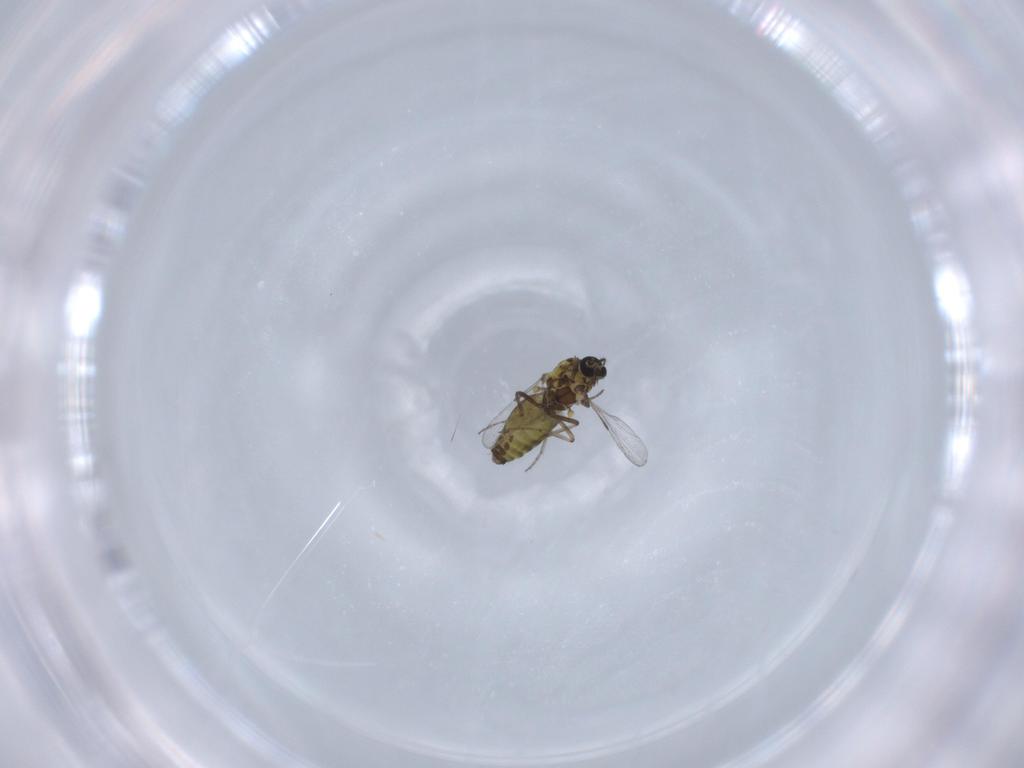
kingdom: Animalia
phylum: Arthropoda
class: Insecta
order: Diptera
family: Ceratopogonidae
